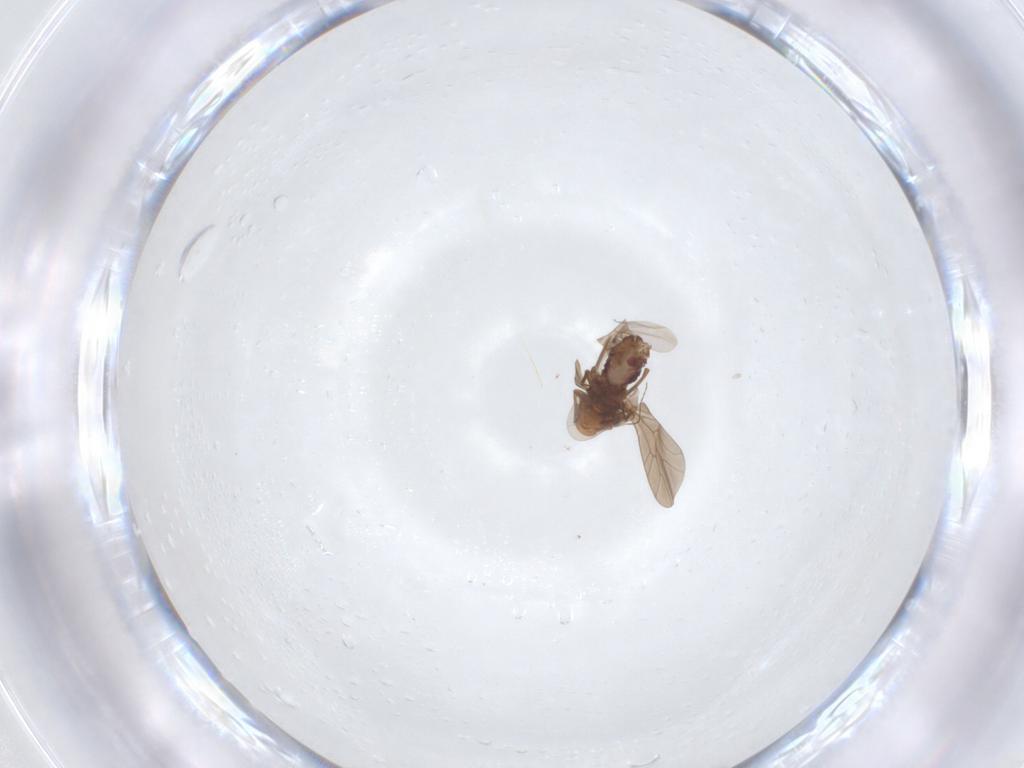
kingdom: Animalia
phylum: Arthropoda
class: Insecta
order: Psocodea
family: Lepidopsocidae
